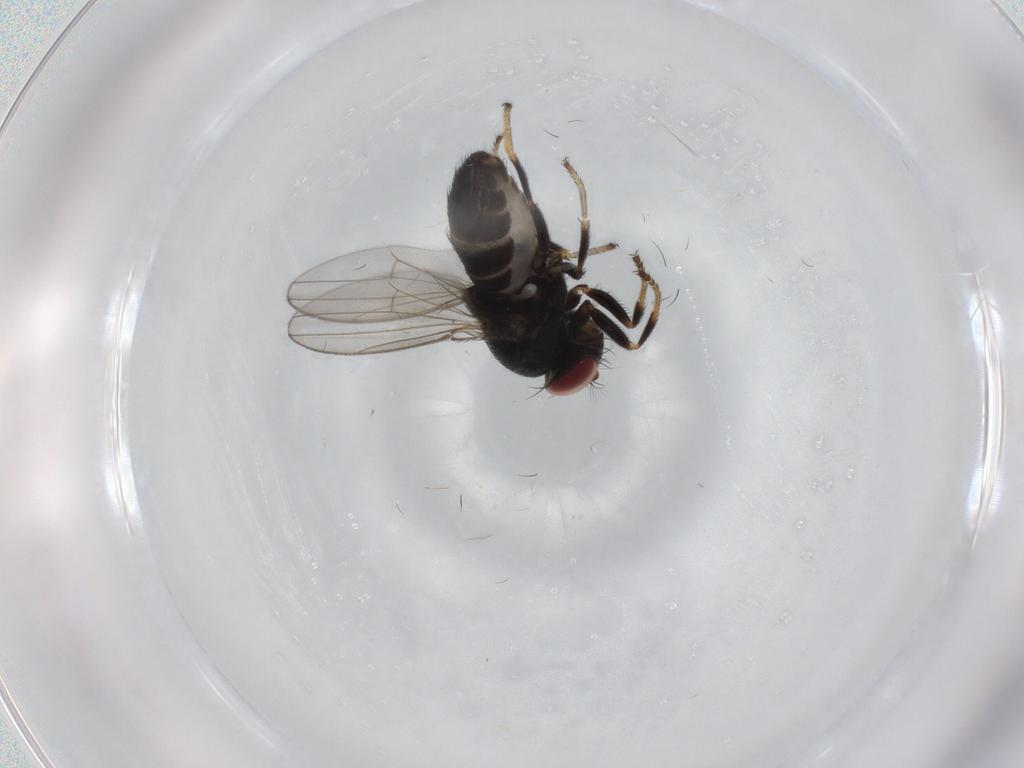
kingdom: Animalia
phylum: Arthropoda
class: Insecta
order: Diptera
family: Ephydridae
